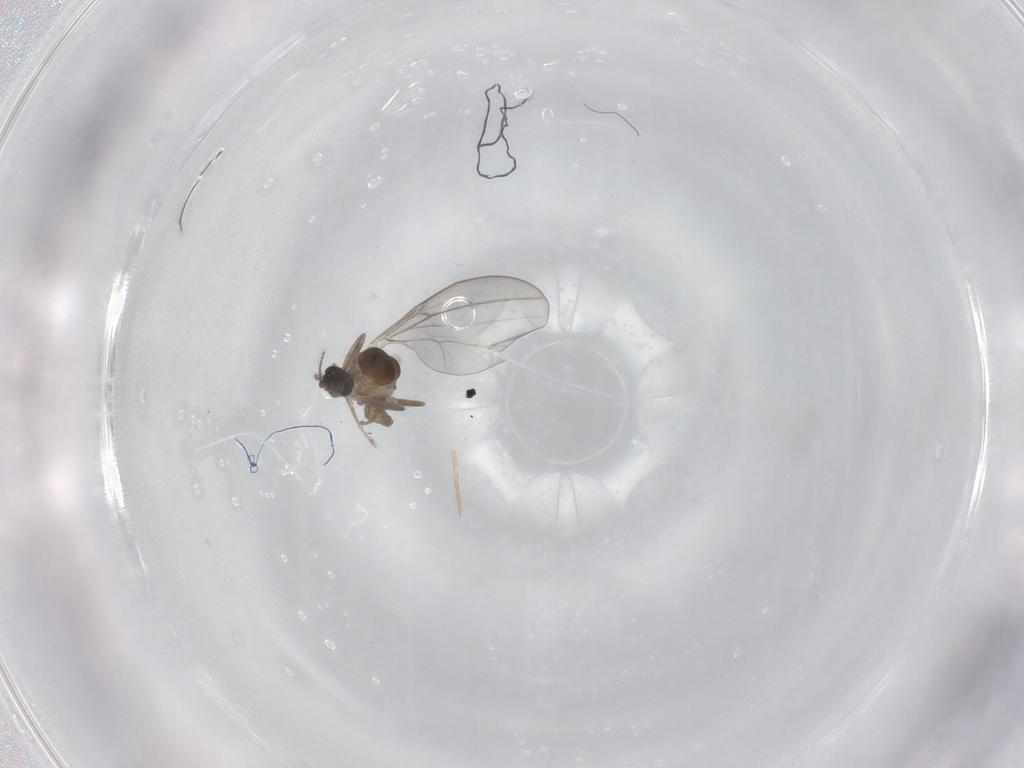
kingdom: Animalia
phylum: Arthropoda
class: Insecta
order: Diptera
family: Cecidomyiidae
